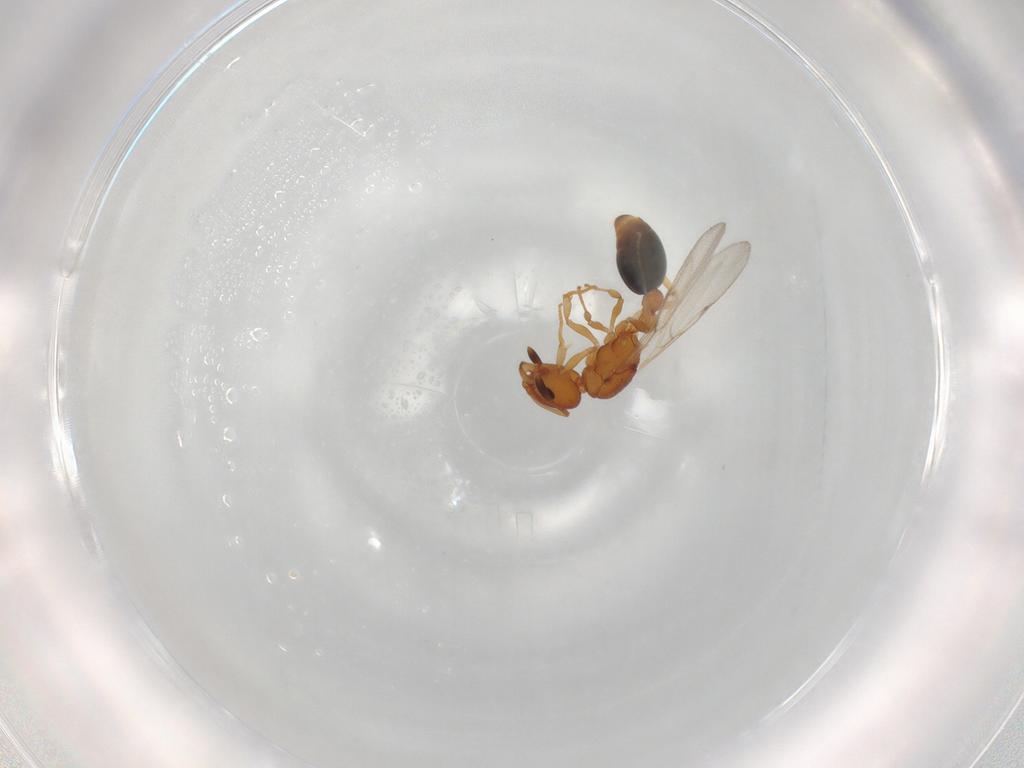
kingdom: Animalia
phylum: Arthropoda
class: Insecta
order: Hymenoptera
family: Formicidae
